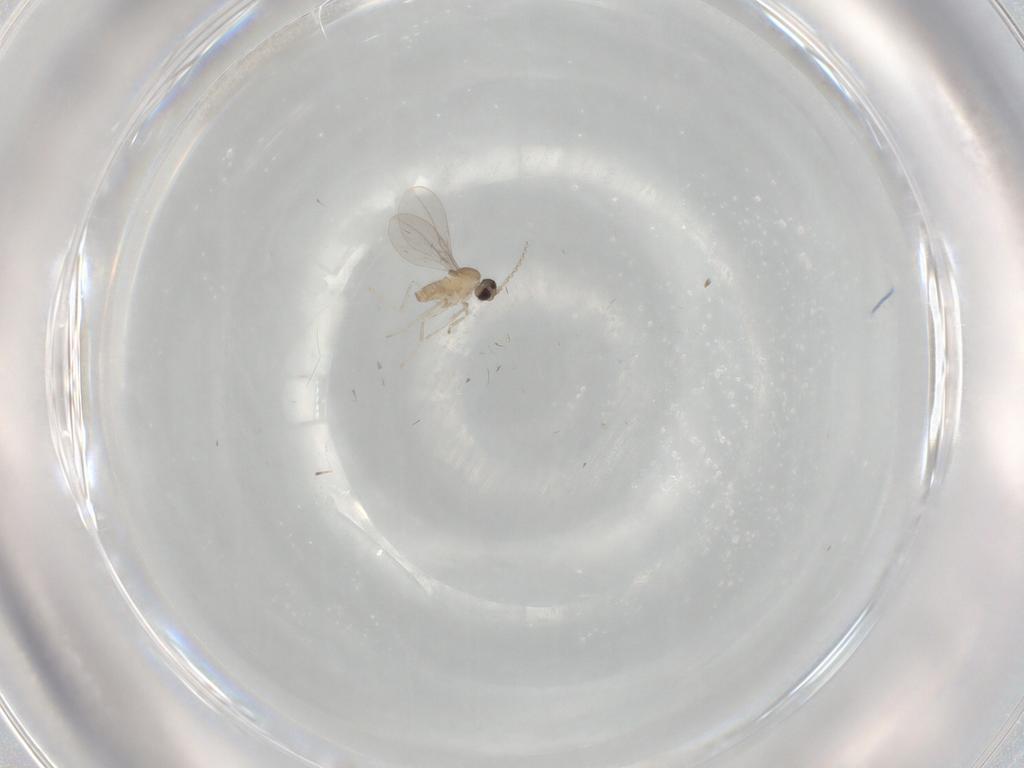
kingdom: Animalia
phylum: Arthropoda
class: Insecta
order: Diptera
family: Cecidomyiidae
